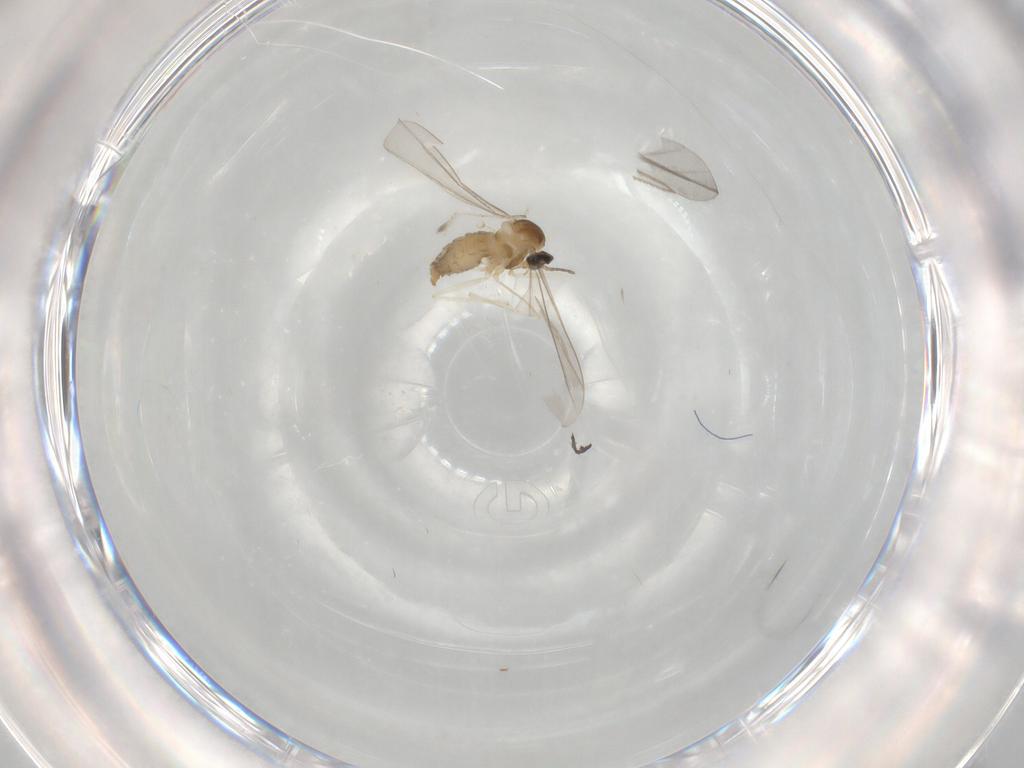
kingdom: Animalia
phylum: Arthropoda
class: Insecta
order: Diptera
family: Cecidomyiidae
